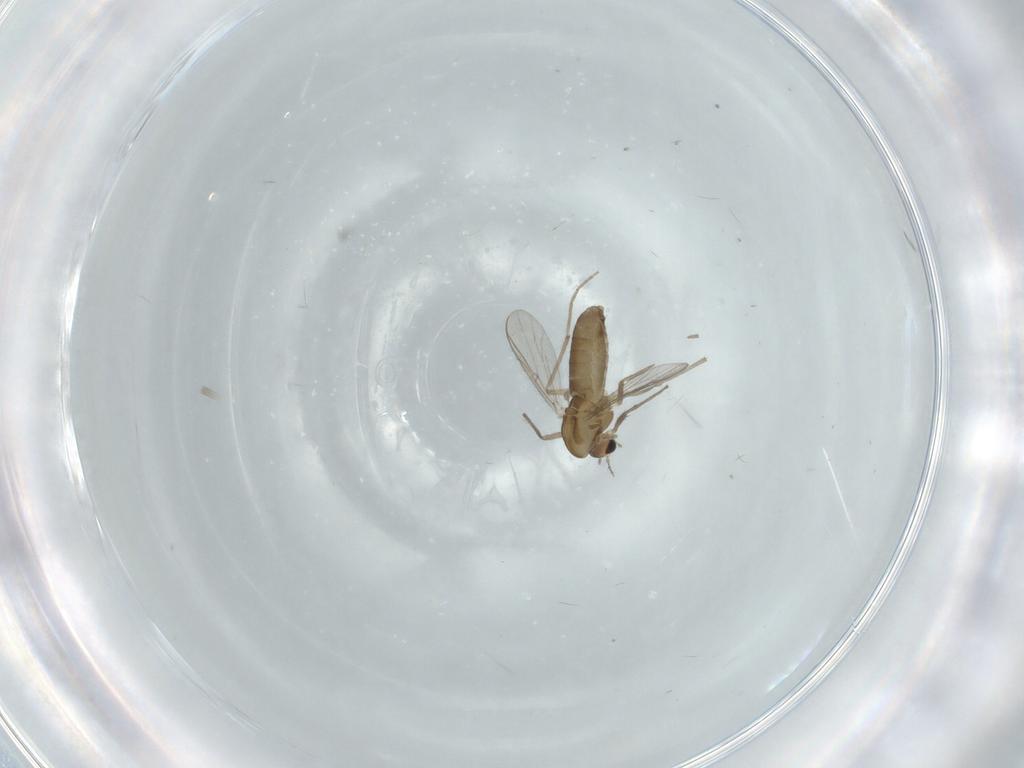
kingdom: Animalia
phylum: Arthropoda
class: Insecta
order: Diptera
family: Chironomidae
